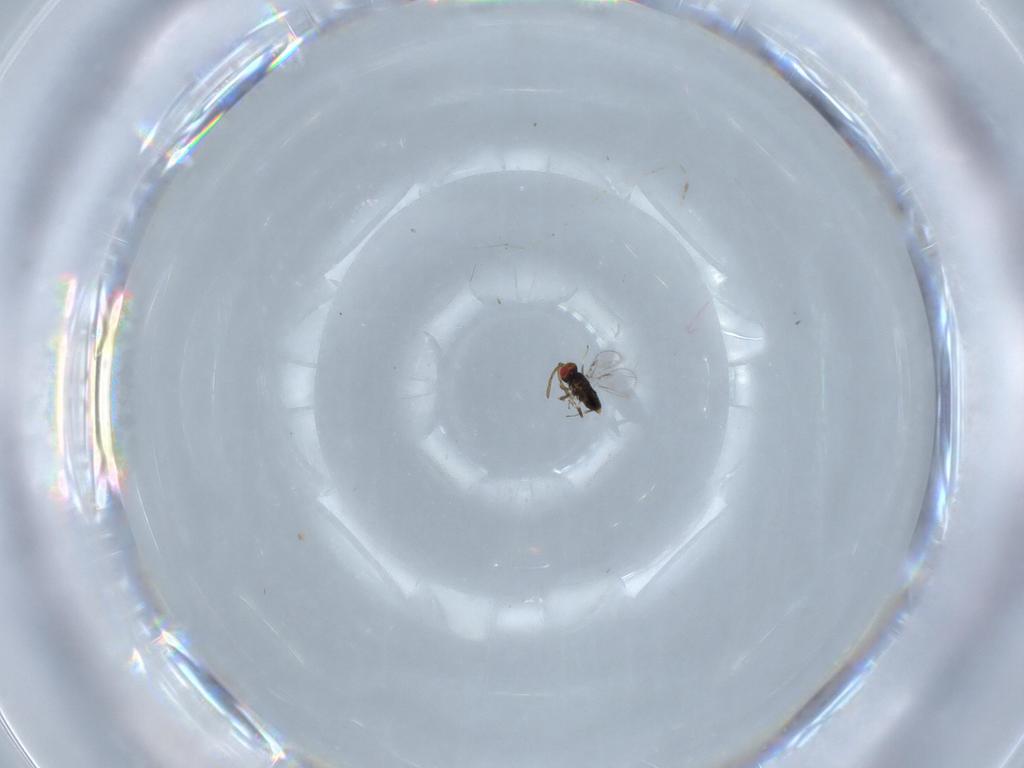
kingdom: Animalia
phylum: Arthropoda
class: Insecta
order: Hymenoptera
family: Azotidae
